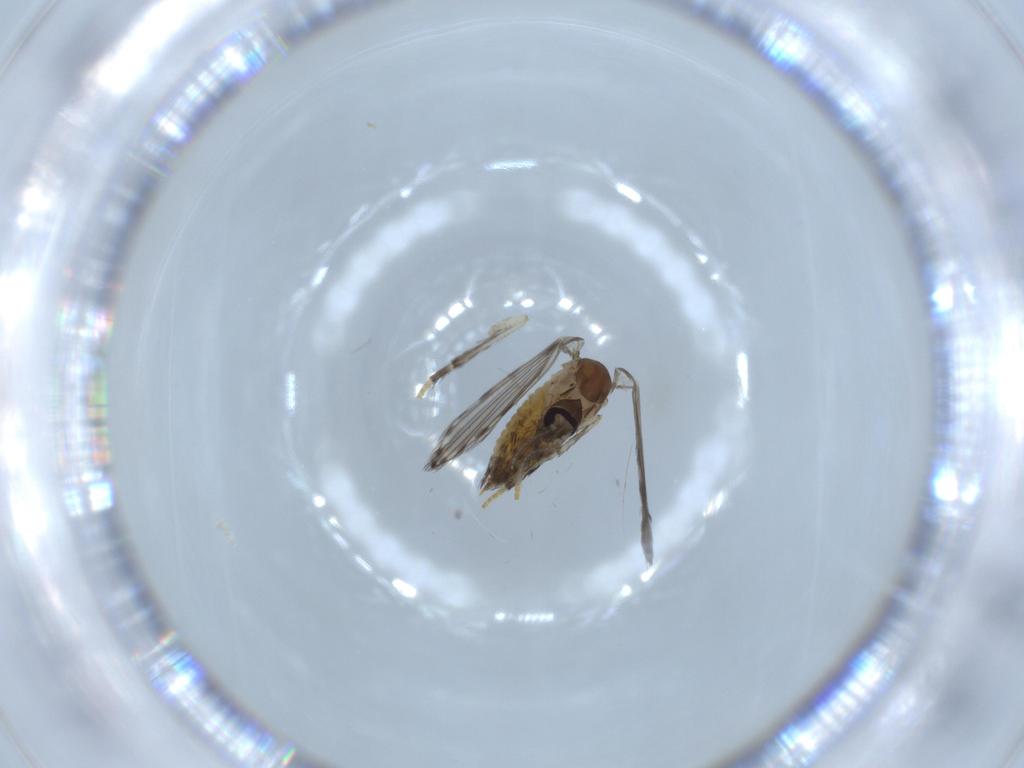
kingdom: Animalia
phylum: Arthropoda
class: Insecta
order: Diptera
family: Psychodidae
